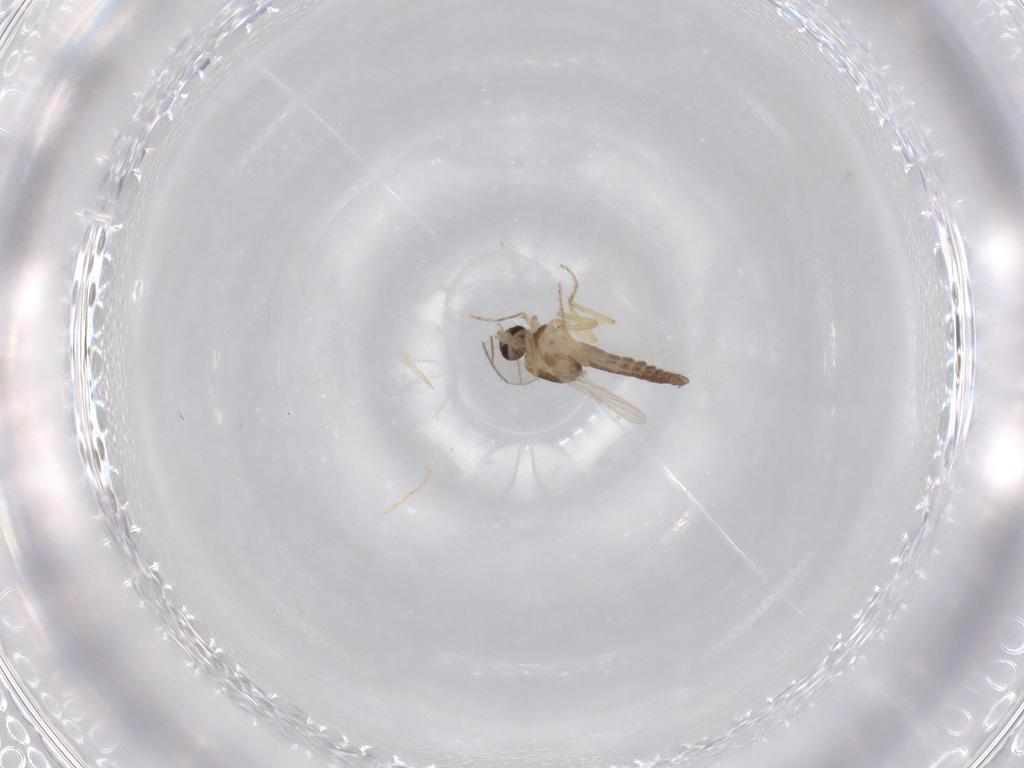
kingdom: Animalia
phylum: Arthropoda
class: Insecta
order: Diptera
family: Ceratopogonidae
